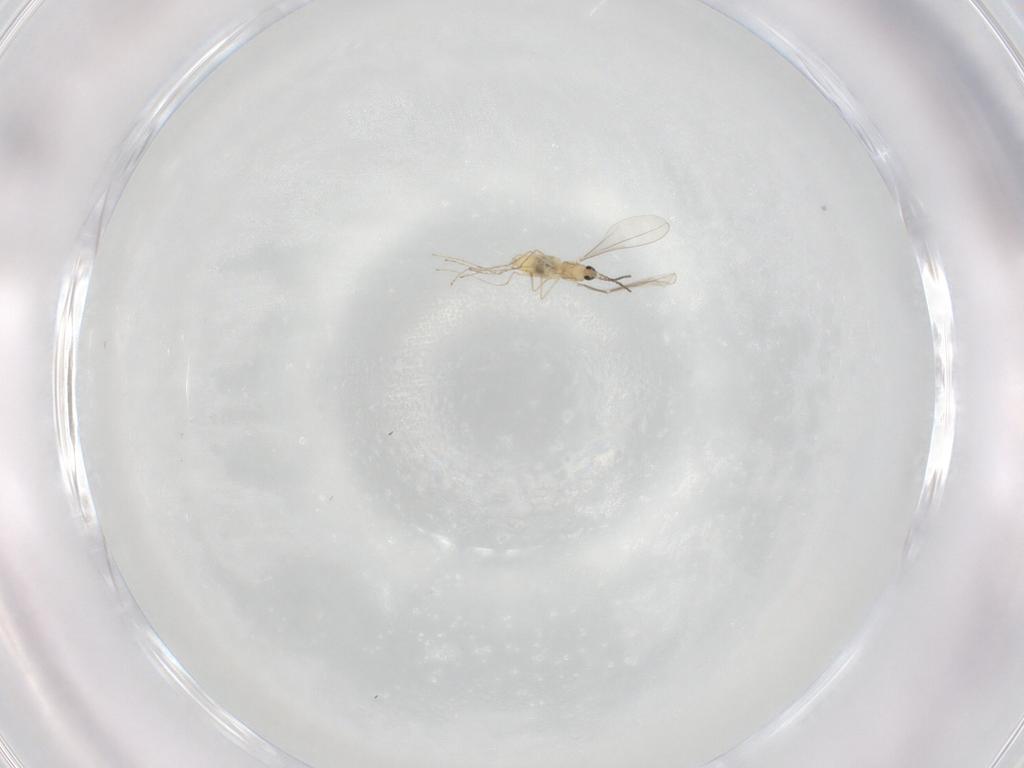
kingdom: Animalia
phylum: Arthropoda
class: Insecta
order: Diptera
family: Cecidomyiidae
